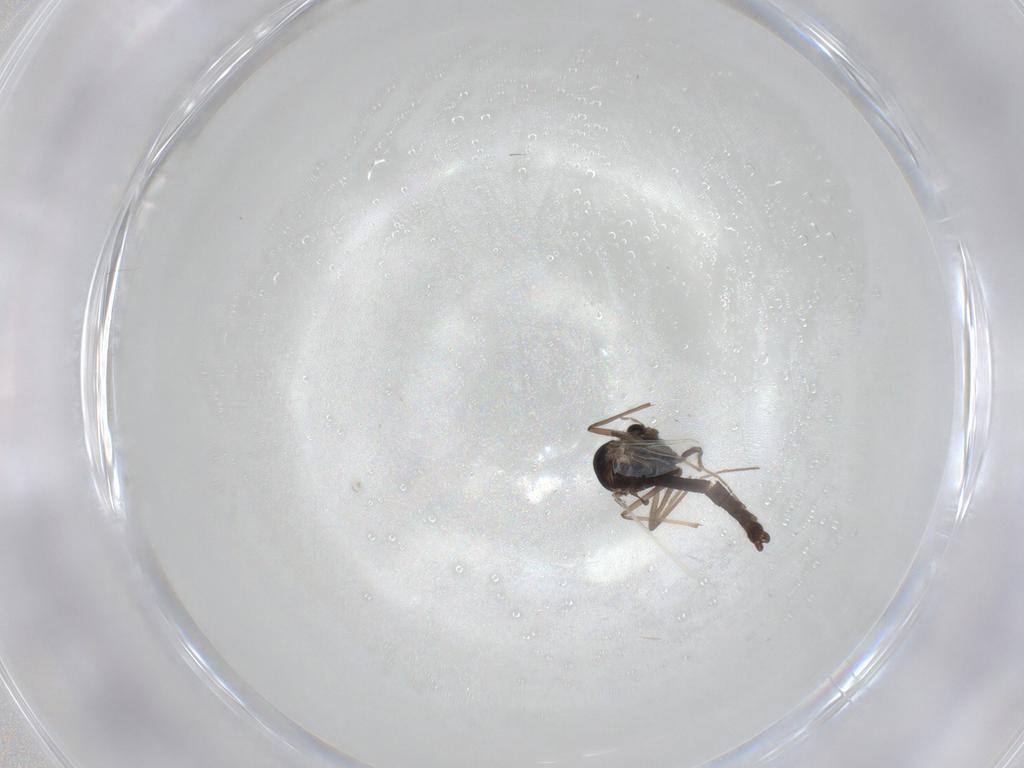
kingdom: Animalia
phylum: Arthropoda
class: Insecta
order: Diptera
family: Chironomidae
